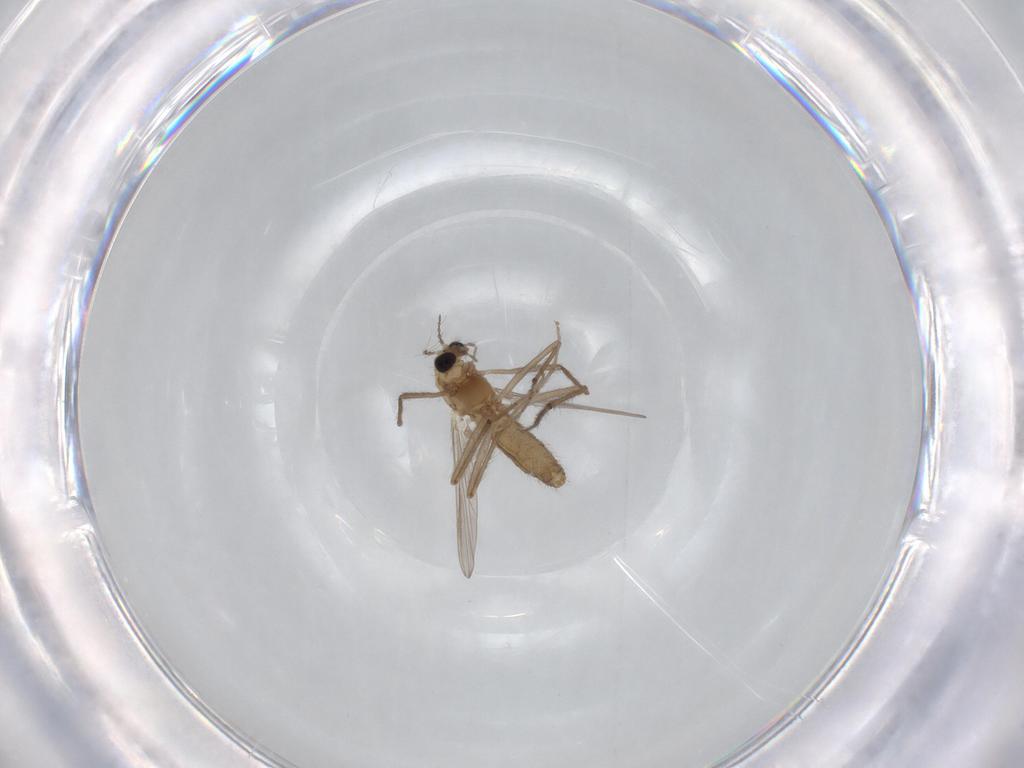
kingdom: Animalia
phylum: Arthropoda
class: Insecta
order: Diptera
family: Chironomidae
